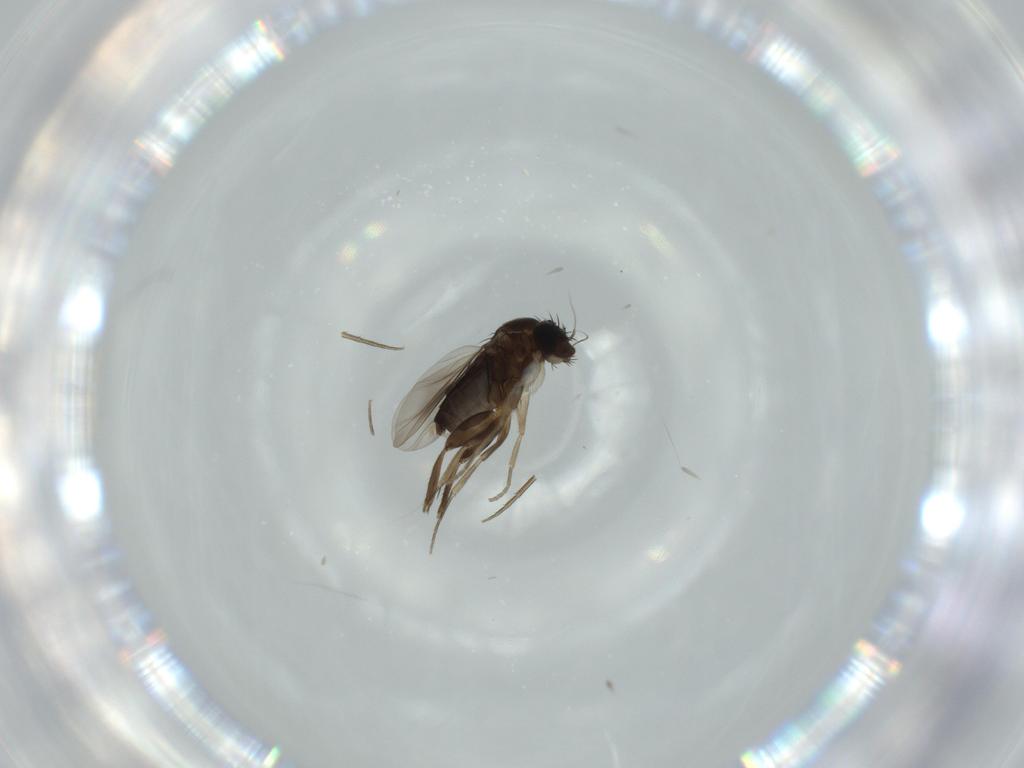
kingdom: Animalia
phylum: Arthropoda
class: Insecta
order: Diptera
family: Phoridae
